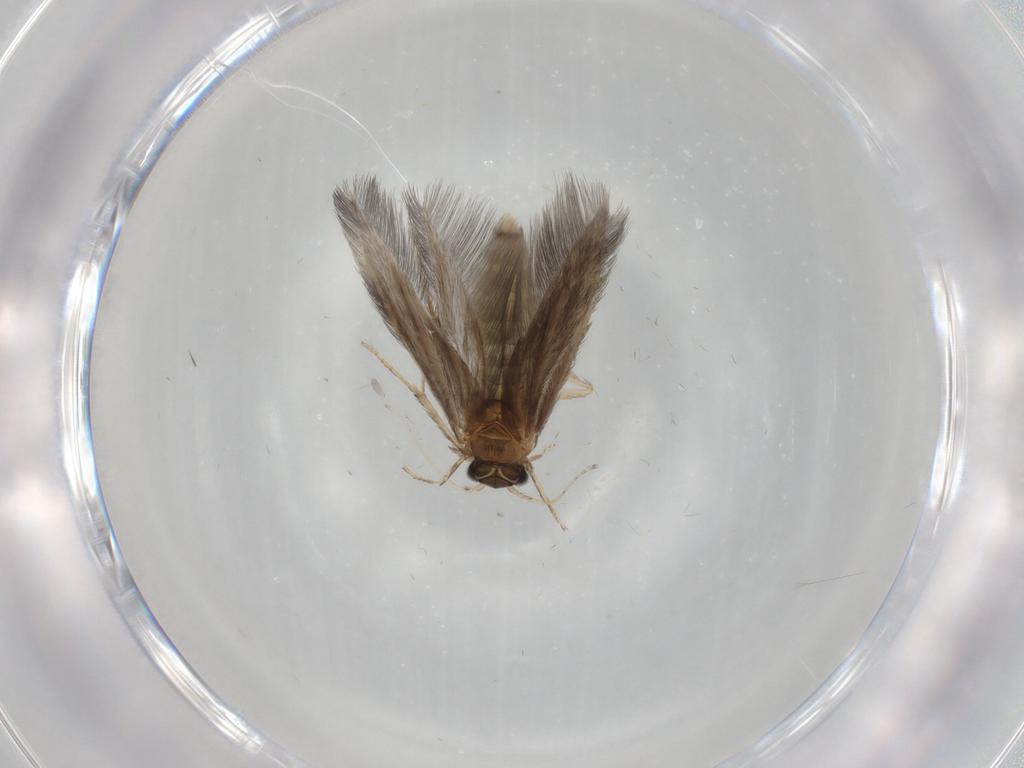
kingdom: Animalia
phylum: Arthropoda
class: Insecta
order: Trichoptera
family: Hydroptilidae
